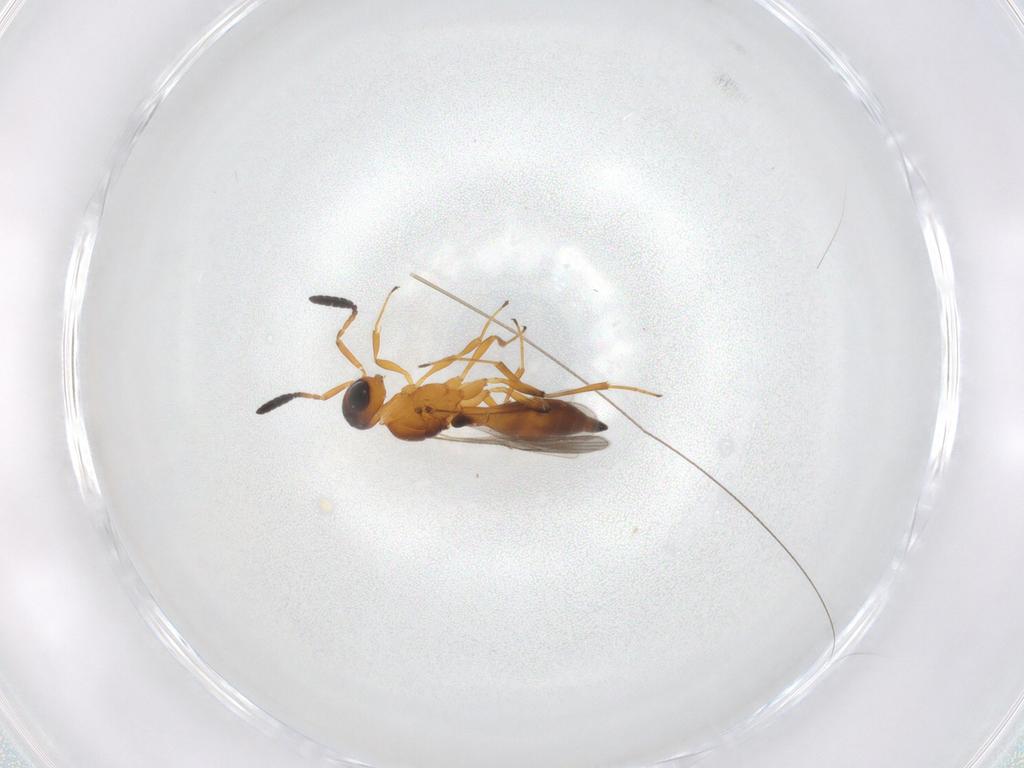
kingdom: Animalia
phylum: Arthropoda
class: Insecta
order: Hymenoptera
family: Scelionidae
